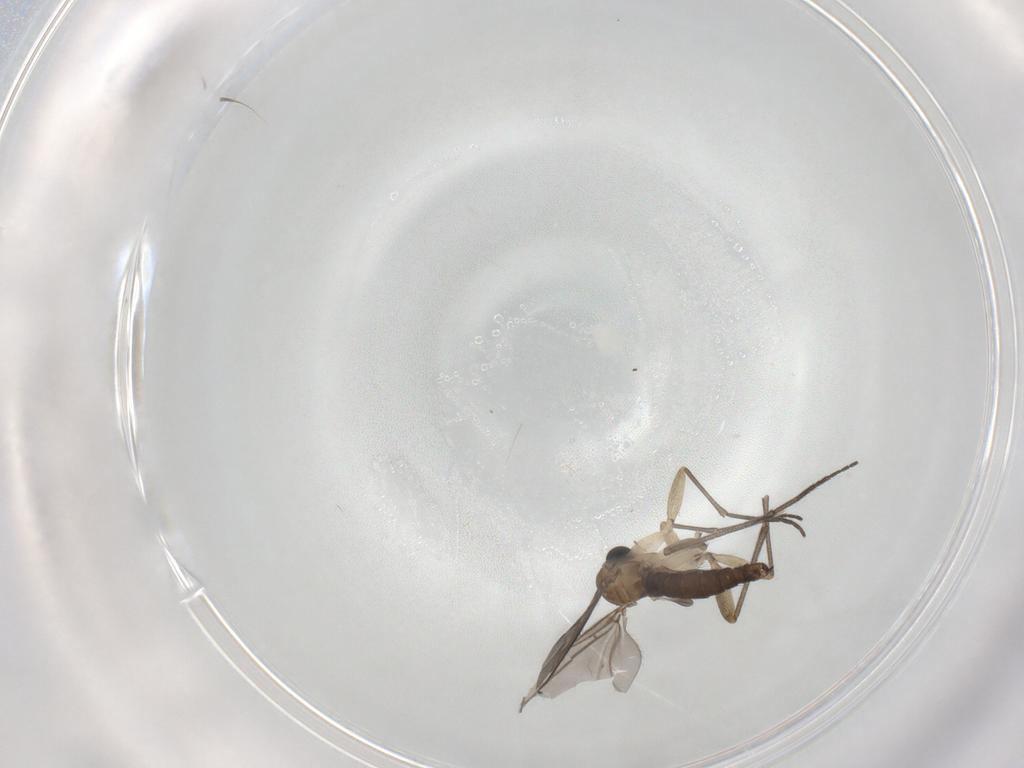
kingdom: Animalia
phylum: Arthropoda
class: Insecta
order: Diptera
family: Sciaridae
